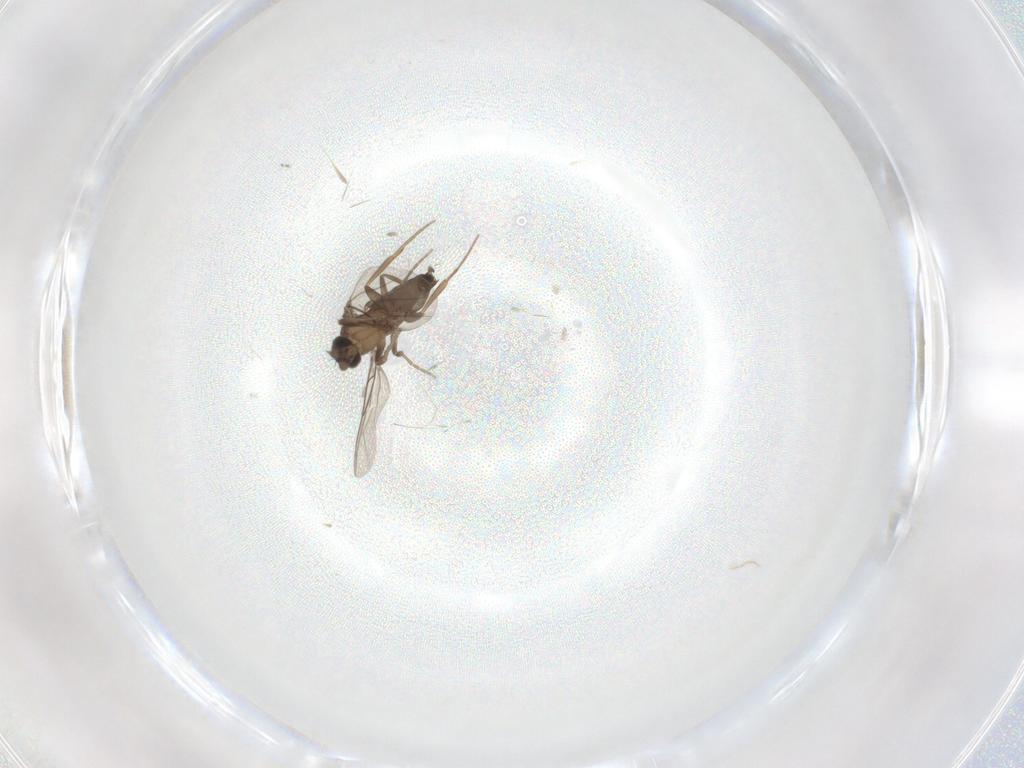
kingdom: Animalia
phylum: Arthropoda
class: Insecta
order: Diptera
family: Phoridae
